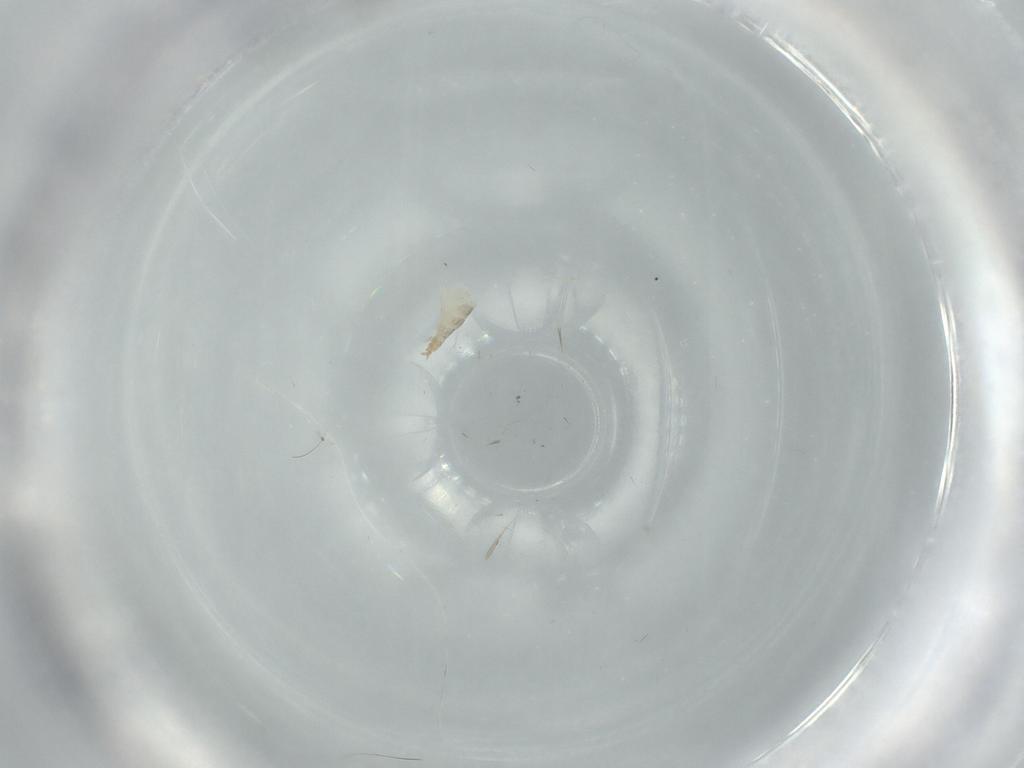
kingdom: Animalia
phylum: Arthropoda
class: Insecta
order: Diptera
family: Cecidomyiidae
